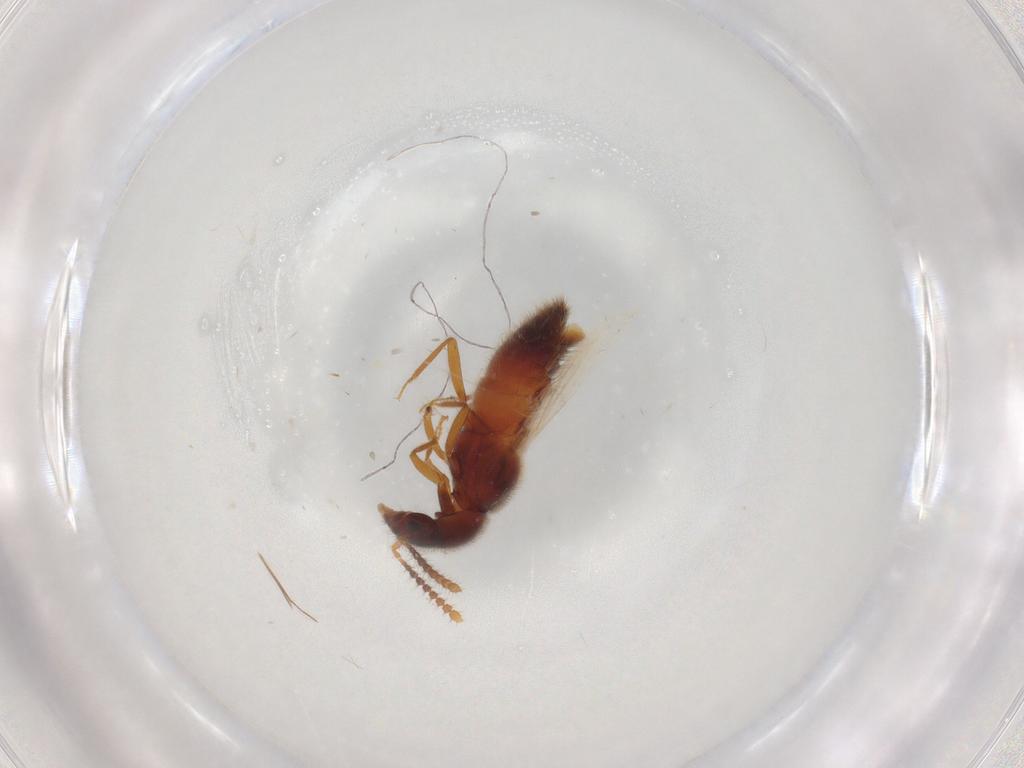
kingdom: Animalia
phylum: Arthropoda
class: Insecta
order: Coleoptera
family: Staphylinidae
